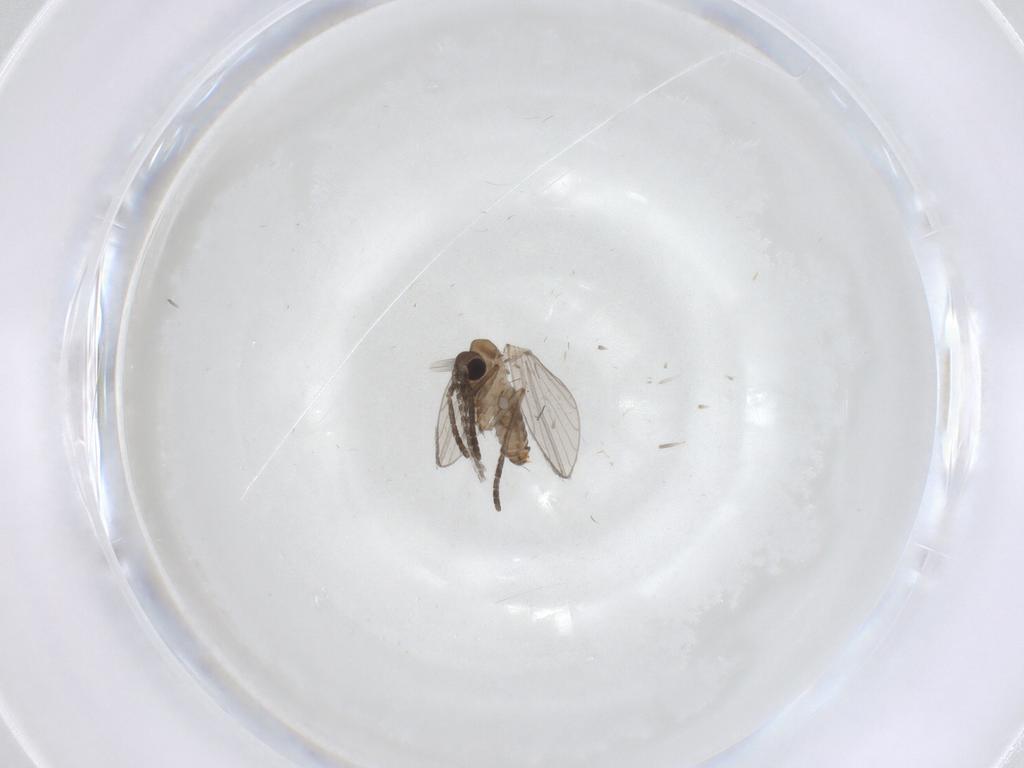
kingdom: Animalia
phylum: Arthropoda
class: Insecta
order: Diptera
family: Psychodidae
